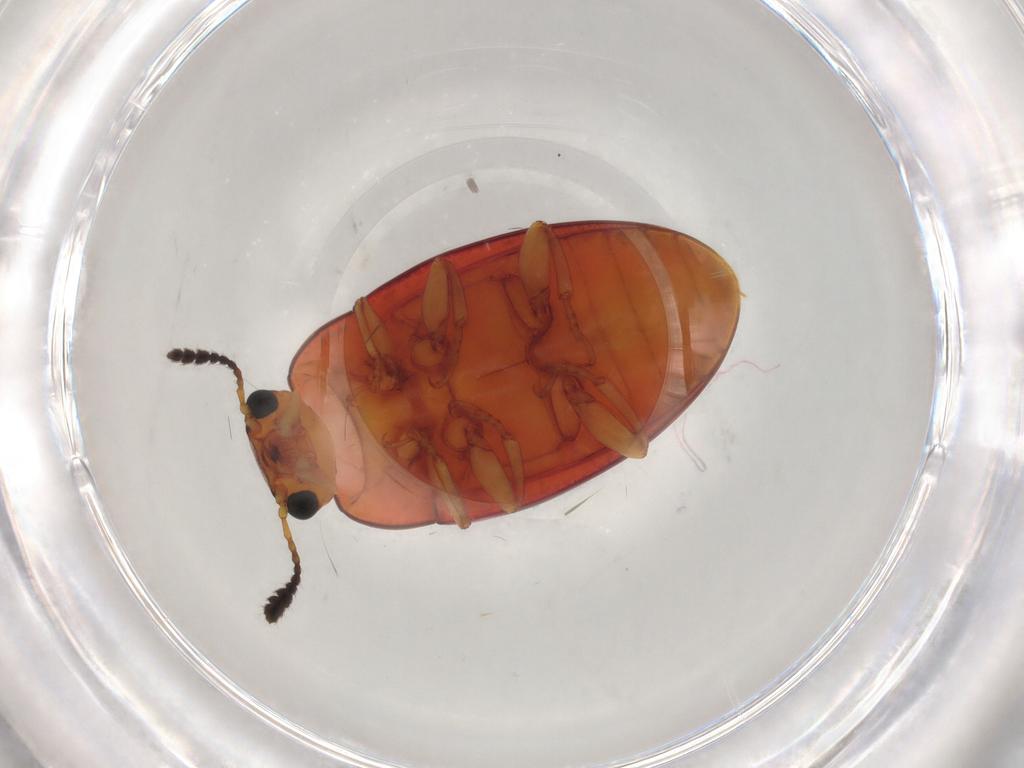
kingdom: Animalia
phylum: Arthropoda
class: Insecta
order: Coleoptera
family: Erotylidae
